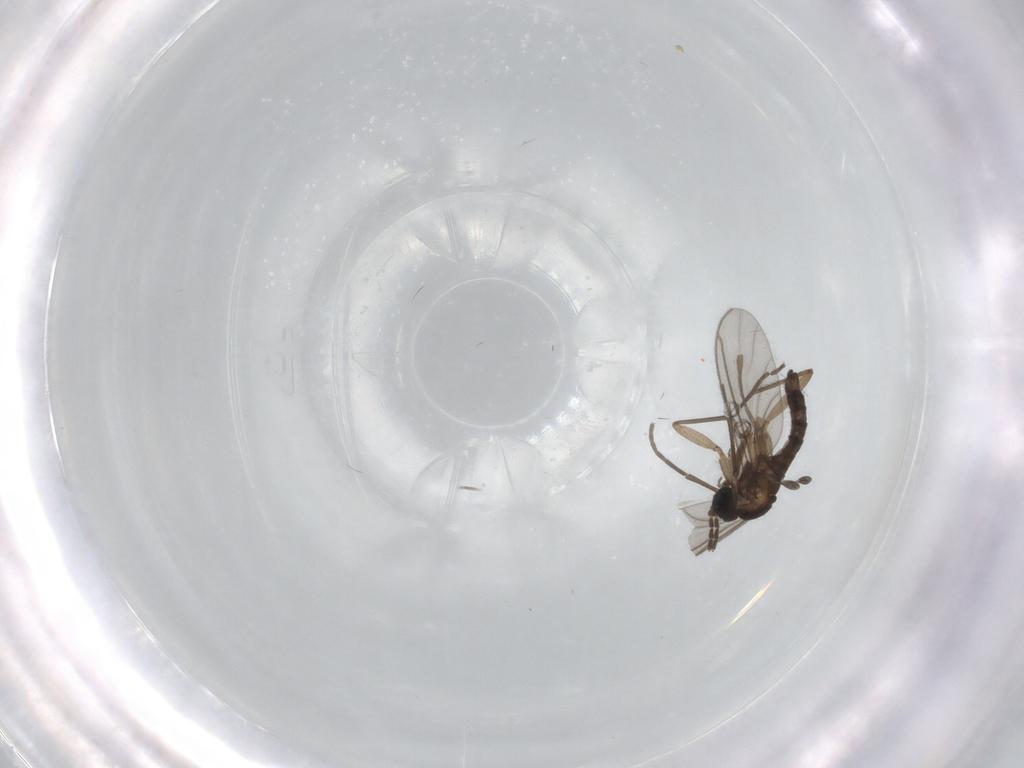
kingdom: Animalia
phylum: Arthropoda
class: Insecta
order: Diptera
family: Sciaridae
